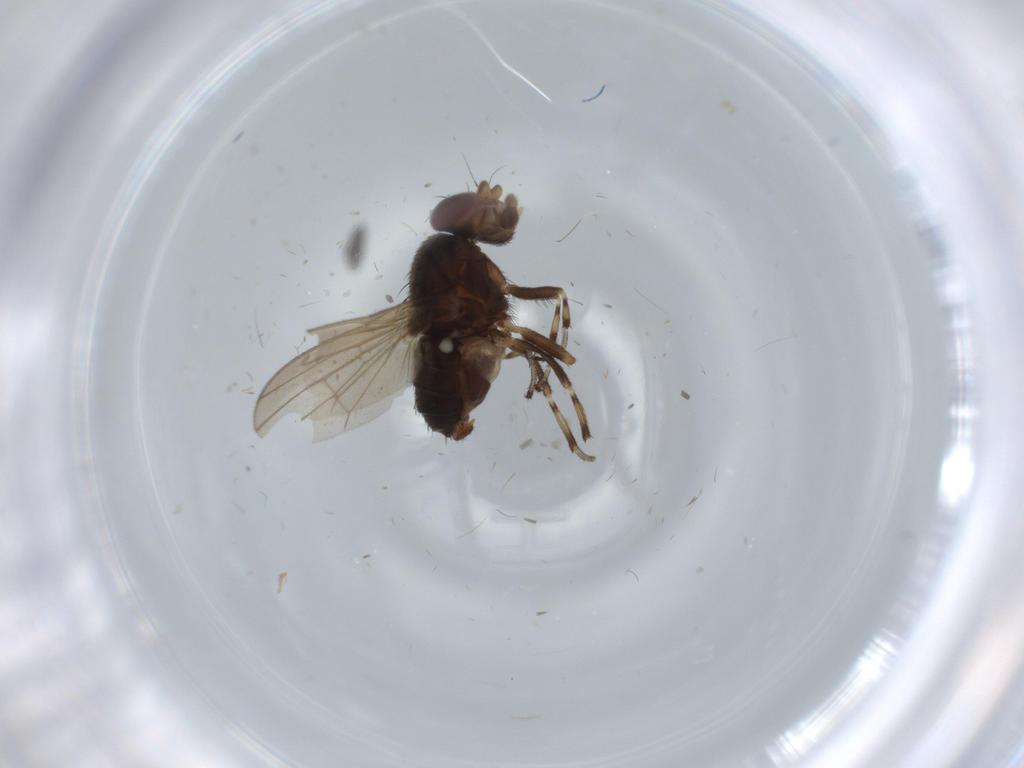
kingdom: Animalia
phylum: Arthropoda
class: Insecta
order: Diptera
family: Heleomyzidae
